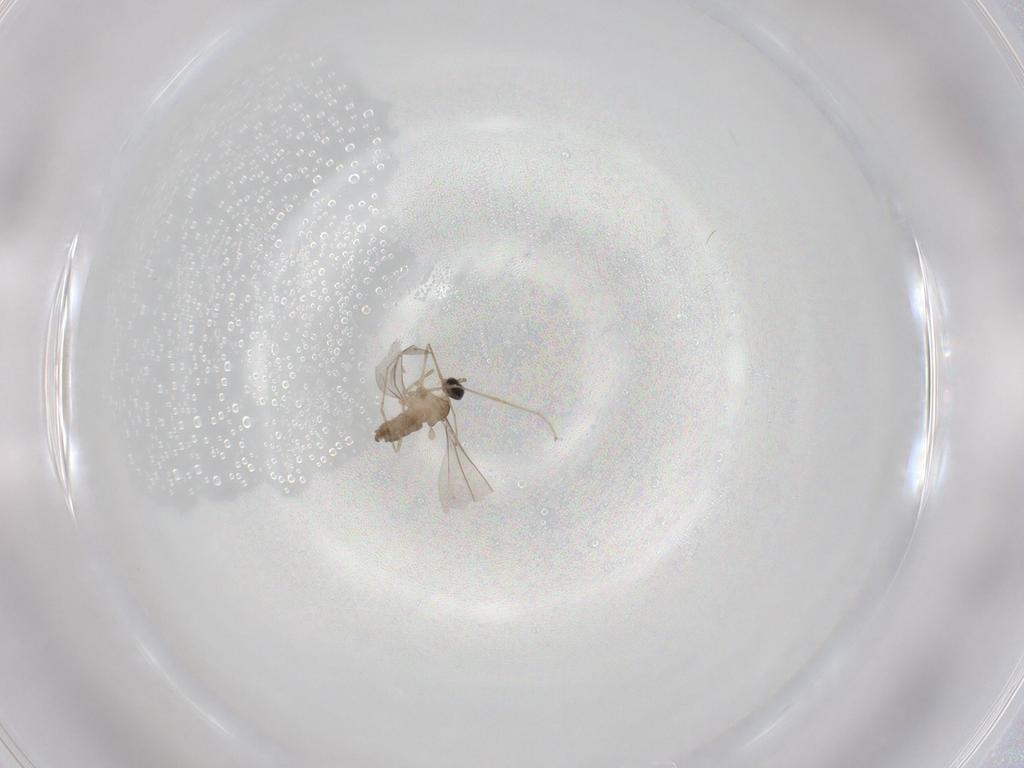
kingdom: Animalia
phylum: Arthropoda
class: Insecta
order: Diptera
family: Cecidomyiidae
